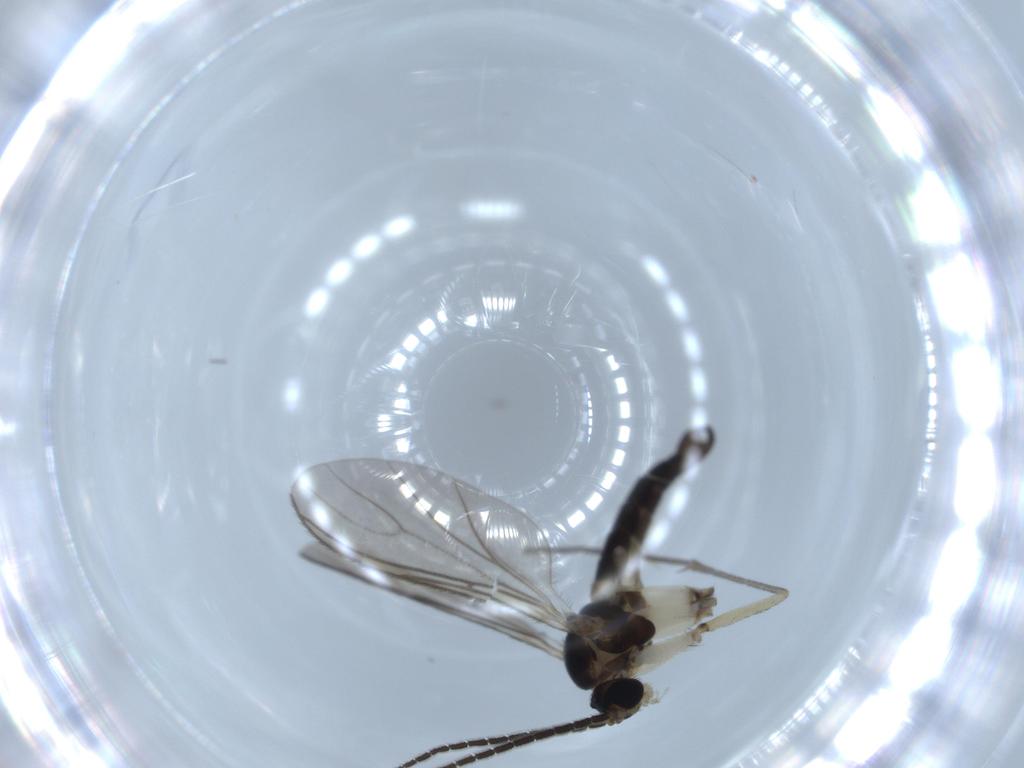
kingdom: Animalia
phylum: Arthropoda
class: Insecta
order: Diptera
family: Sciaridae
